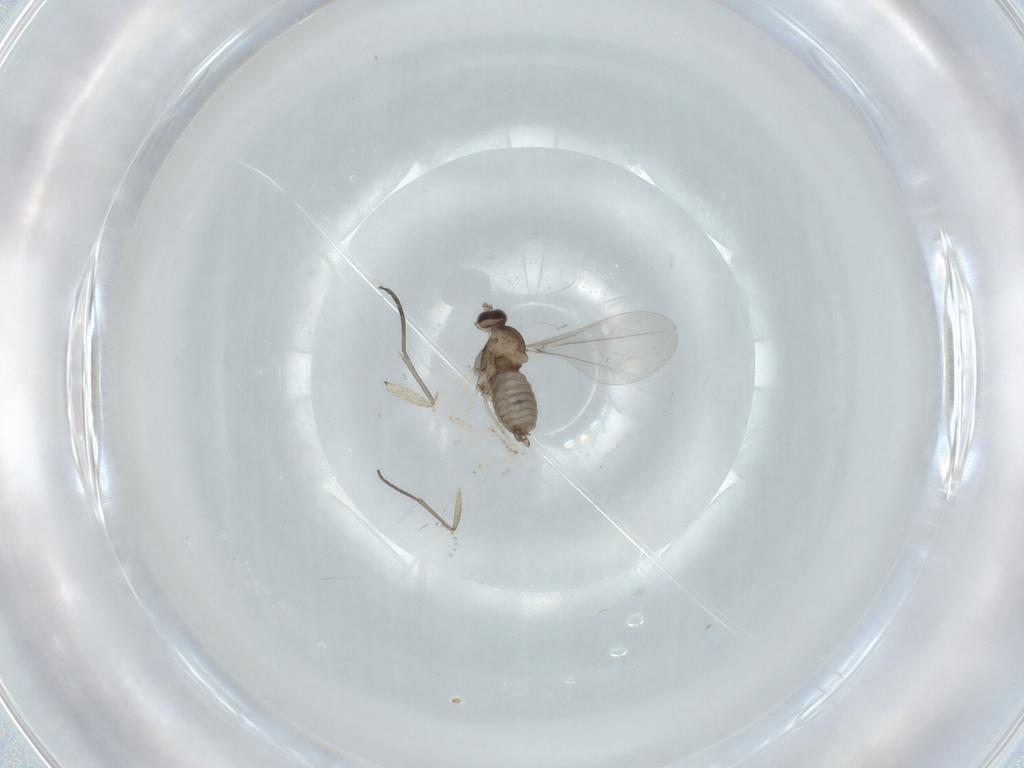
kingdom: Animalia
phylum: Arthropoda
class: Insecta
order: Diptera
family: Cecidomyiidae
